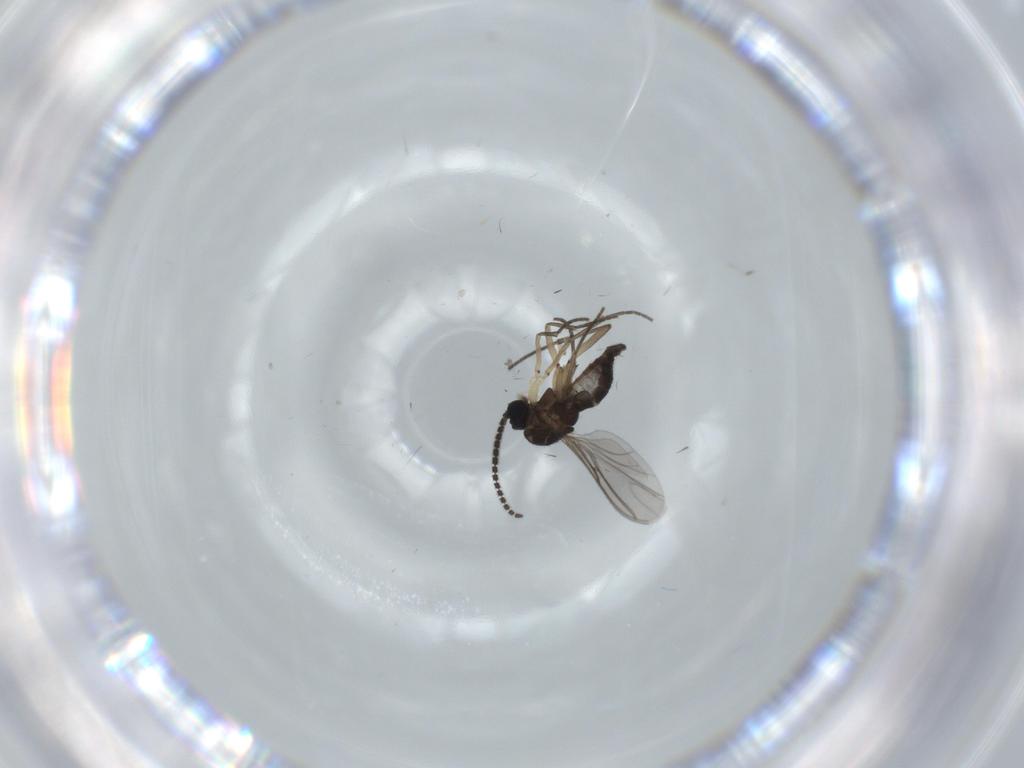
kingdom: Animalia
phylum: Arthropoda
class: Insecta
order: Diptera
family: Sciaridae
